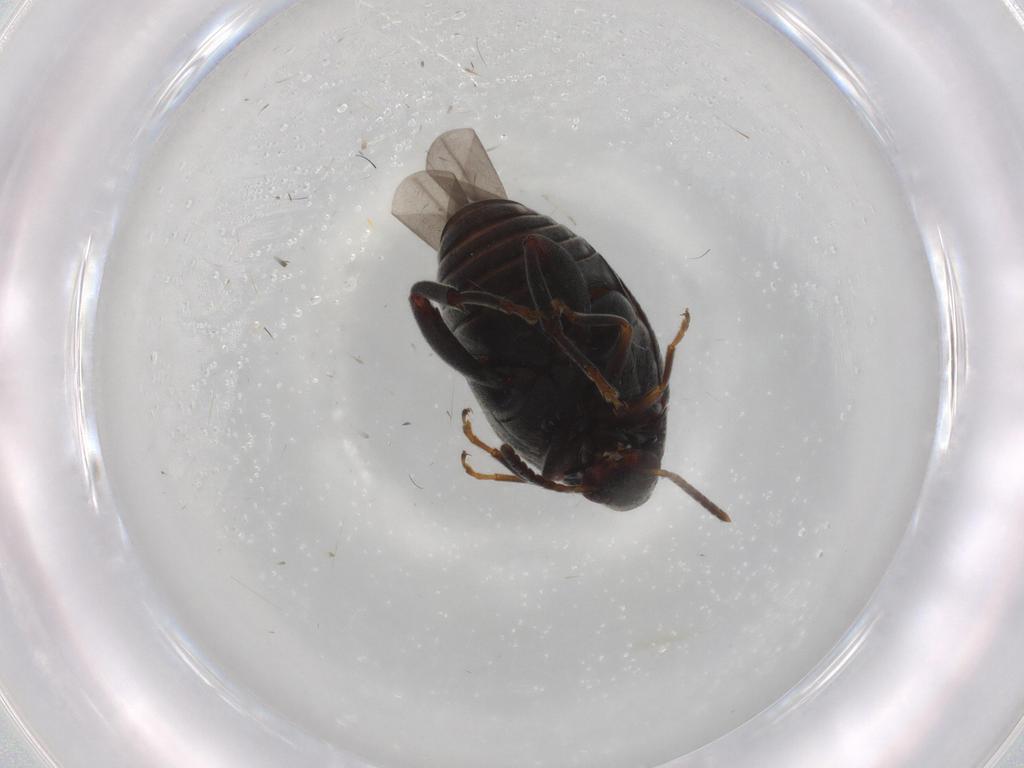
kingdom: Animalia
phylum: Arthropoda
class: Insecta
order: Coleoptera
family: Chrysomelidae
